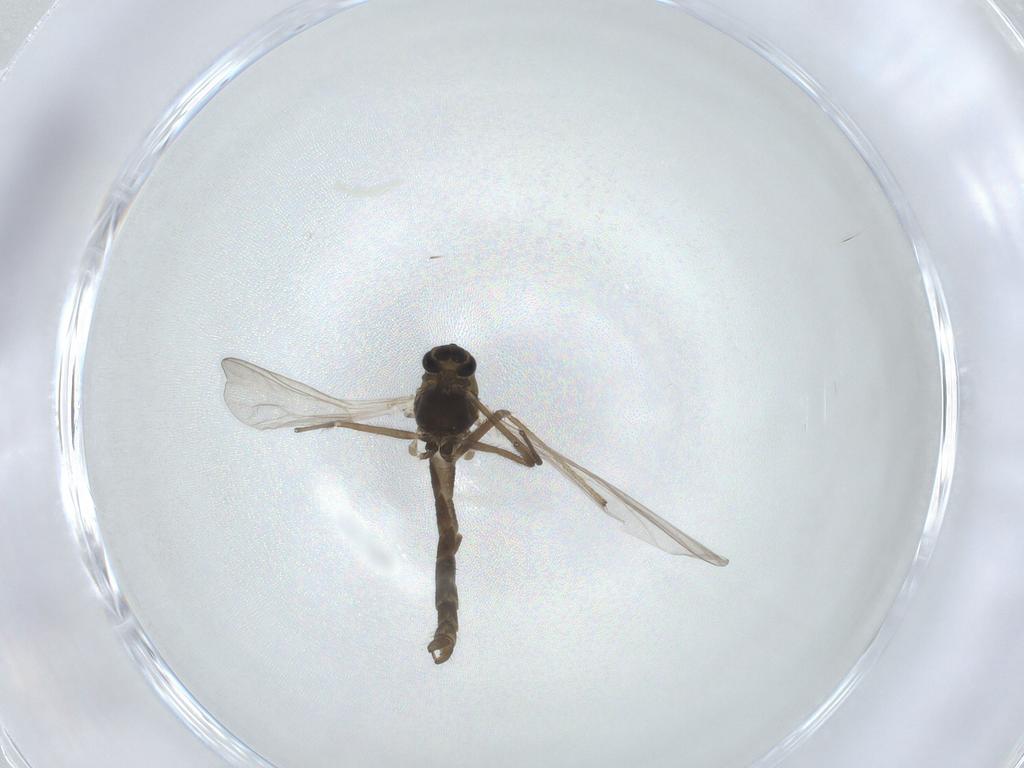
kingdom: Animalia
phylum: Arthropoda
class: Insecta
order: Diptera
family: Chironomidae
